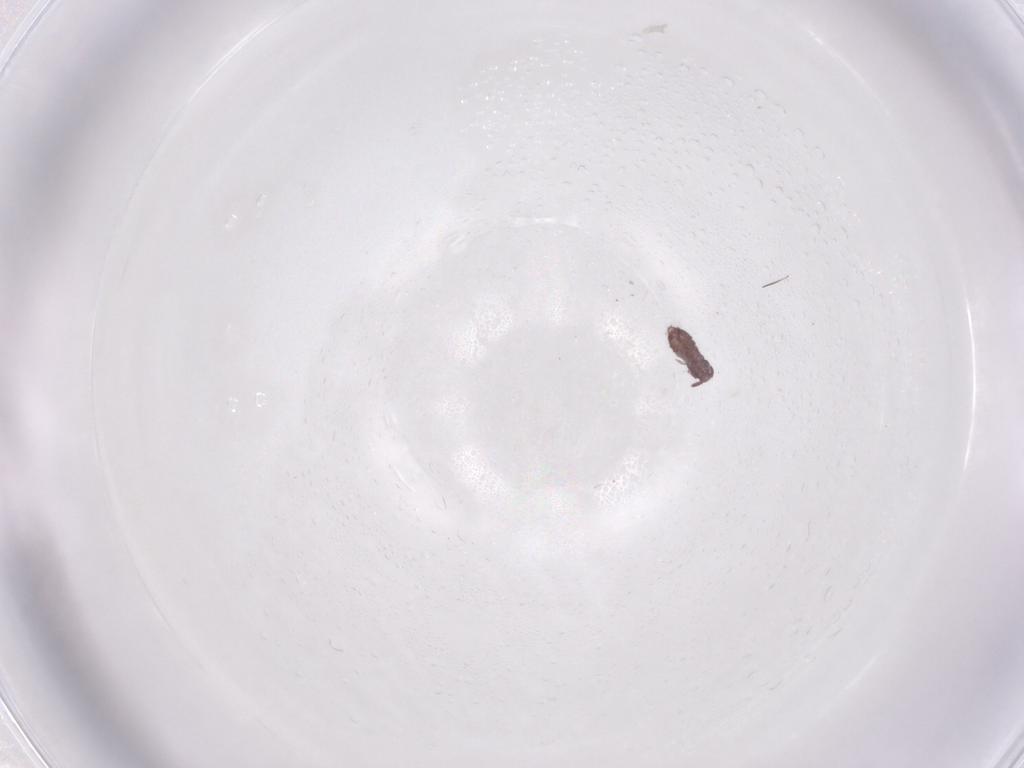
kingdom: Animalia
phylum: Arthropoda
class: Collembola
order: Poduromorpha
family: Hypogastruridae
